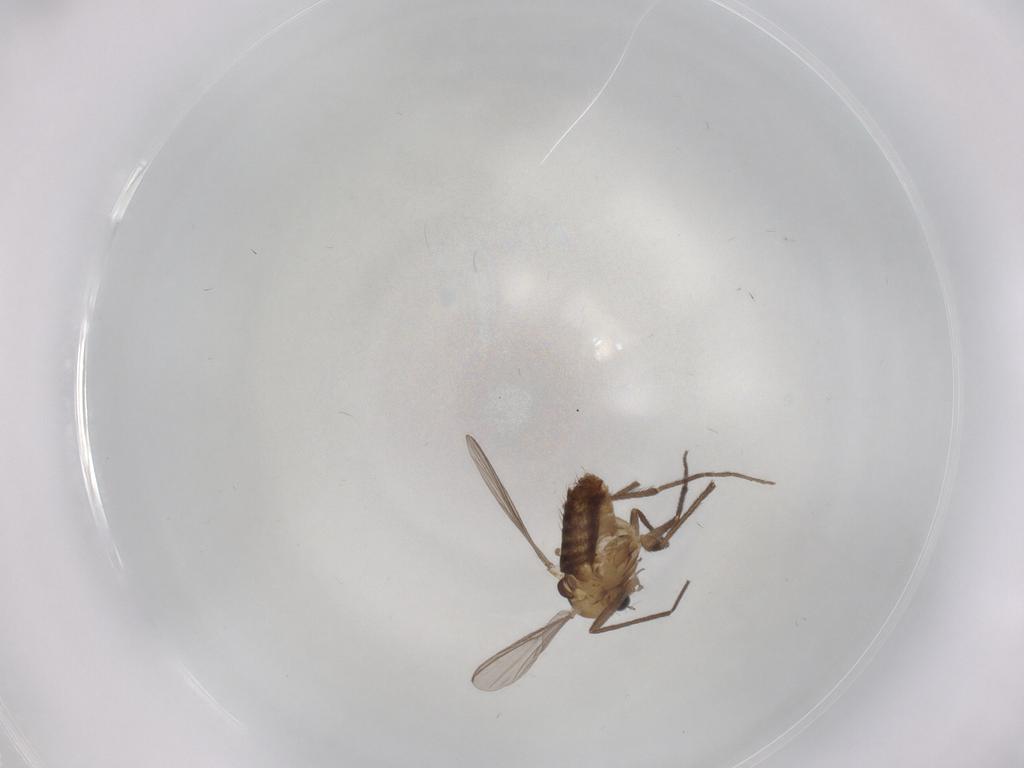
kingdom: Animalia
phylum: Arthropoda
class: Insecta
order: Diptera
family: Chironomidae
